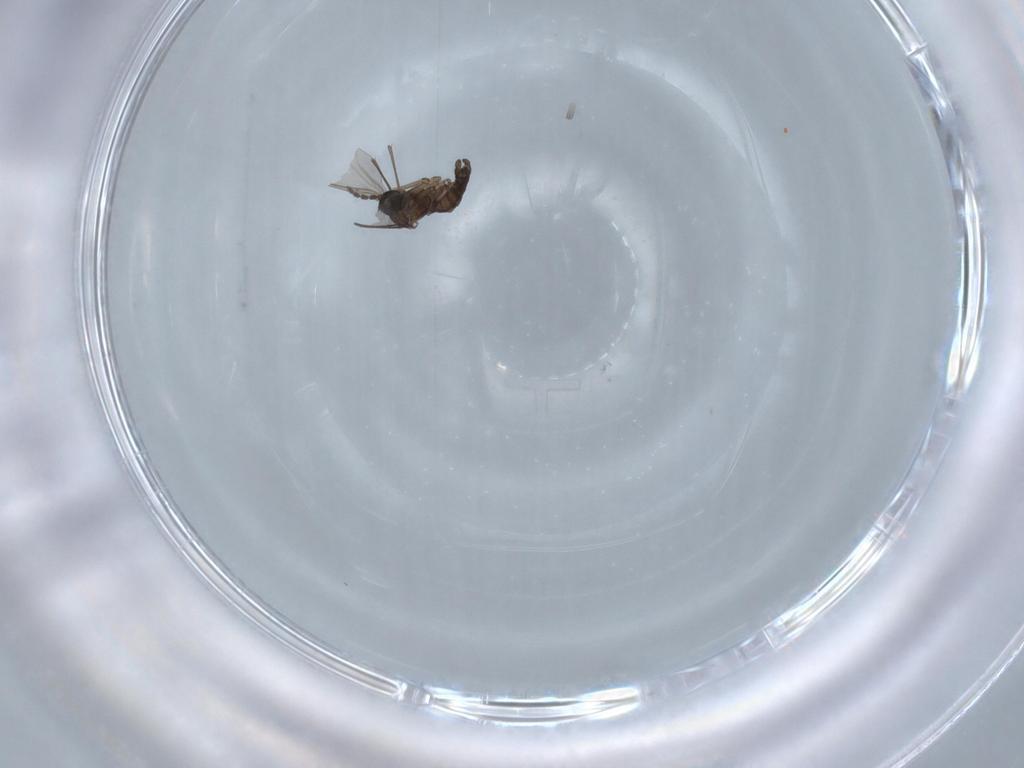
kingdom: Animalia
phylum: Arthropoda
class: Insecta
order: Diptera
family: Sciaridae
